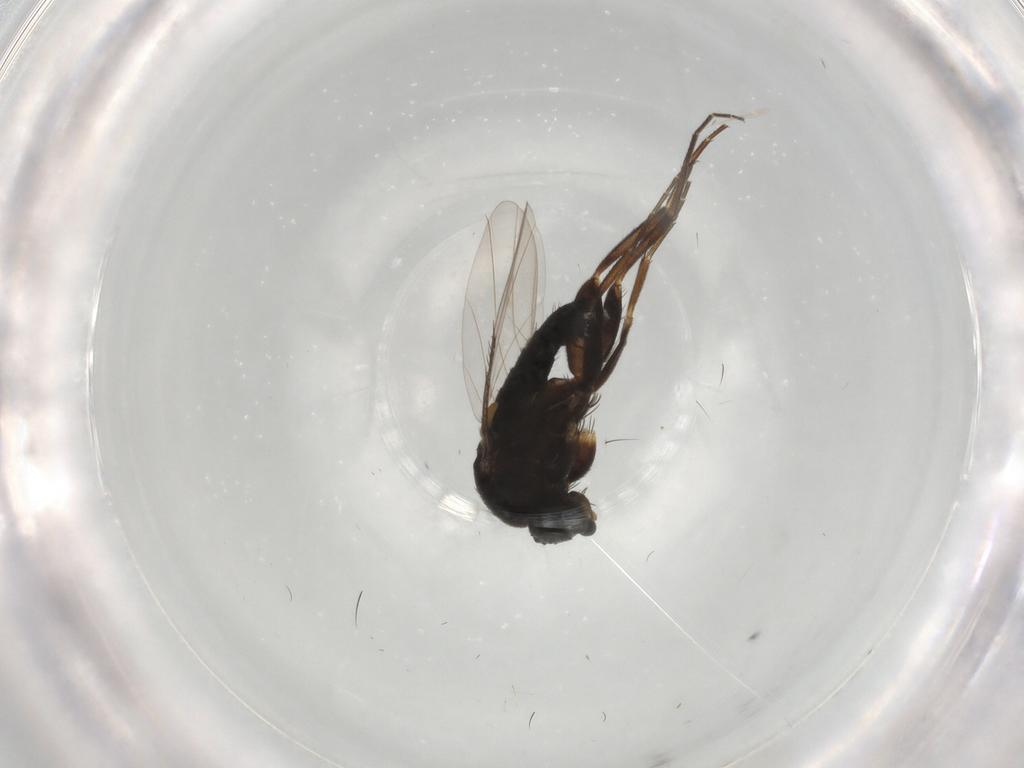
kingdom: Animalia
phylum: Arthropoda
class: Insecta
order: Diptera
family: Phoridae
